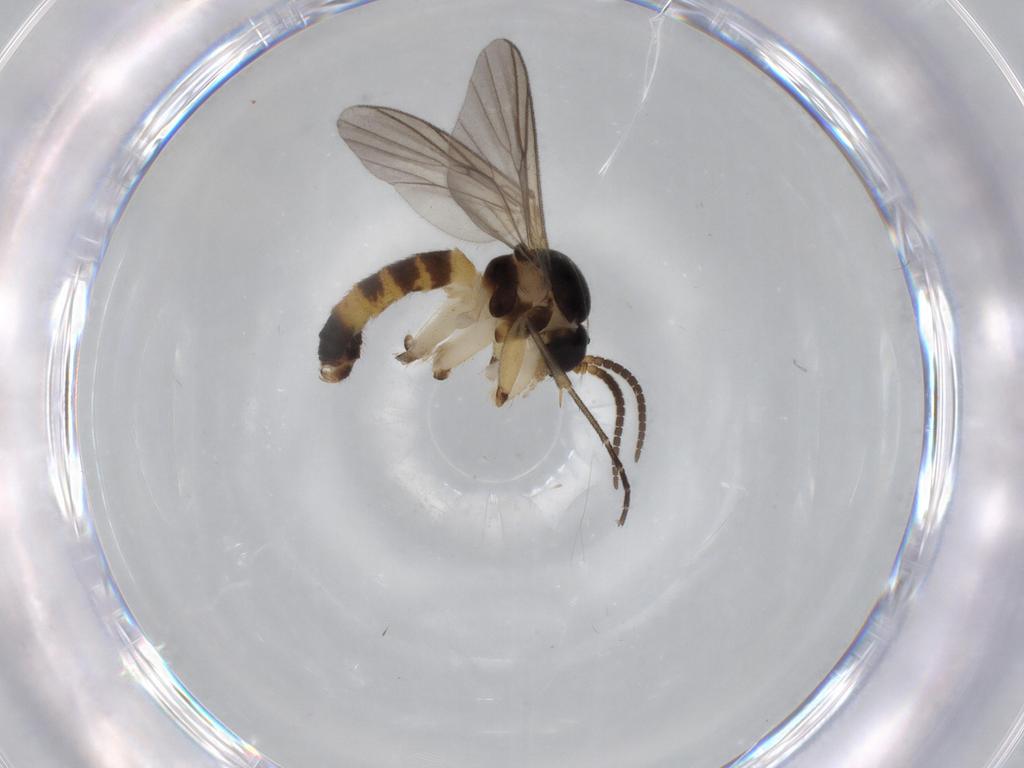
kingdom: Animalia
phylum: Arthropoda
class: Insecta
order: Diptera
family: Mycetophilidae
